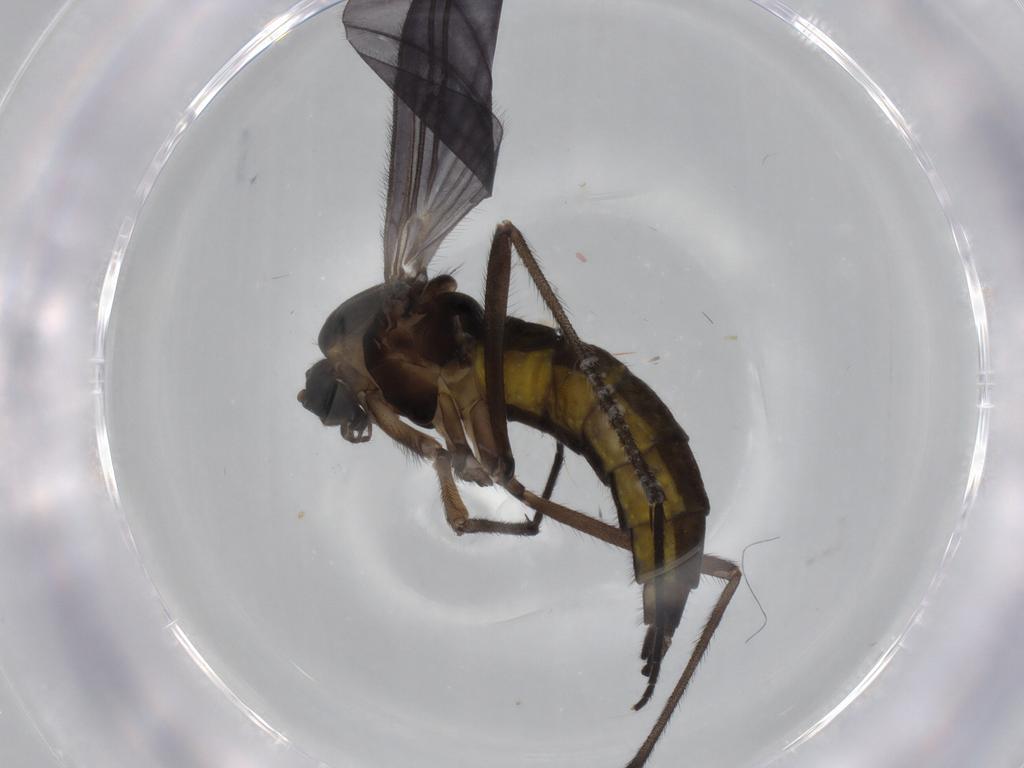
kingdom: Animalia
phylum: Arthropoda
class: Insecta
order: Diptera
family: Sciaridae
